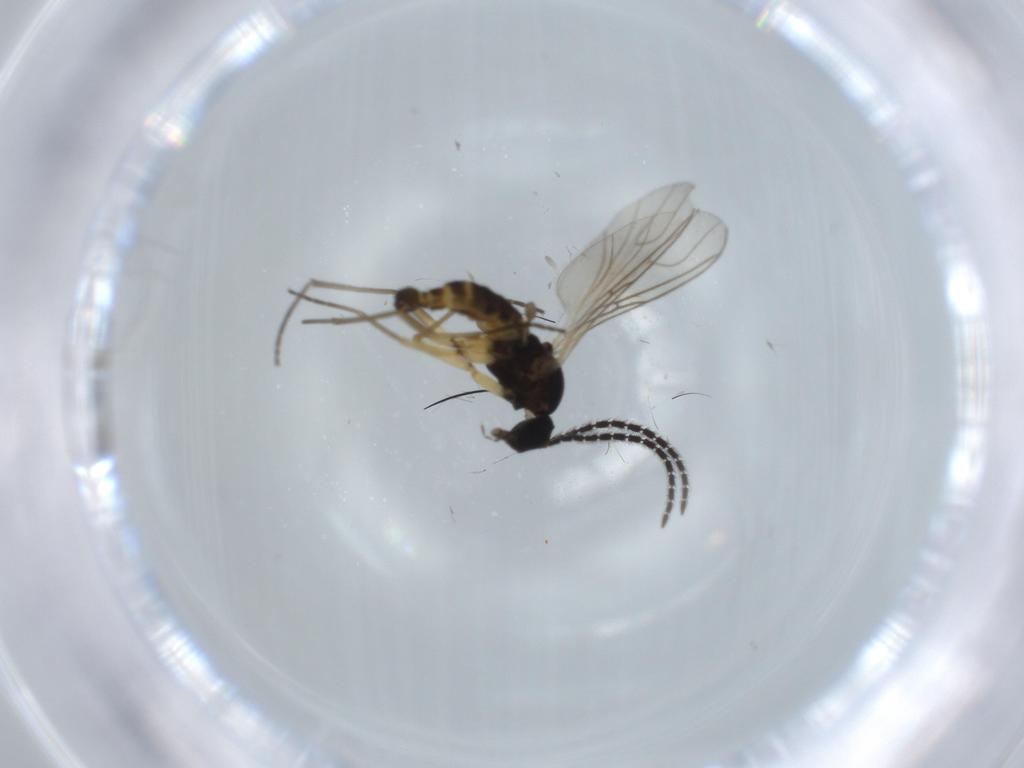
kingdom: Animalia
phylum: Arthropoda
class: Insecta
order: Diptera
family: Sciaridae
